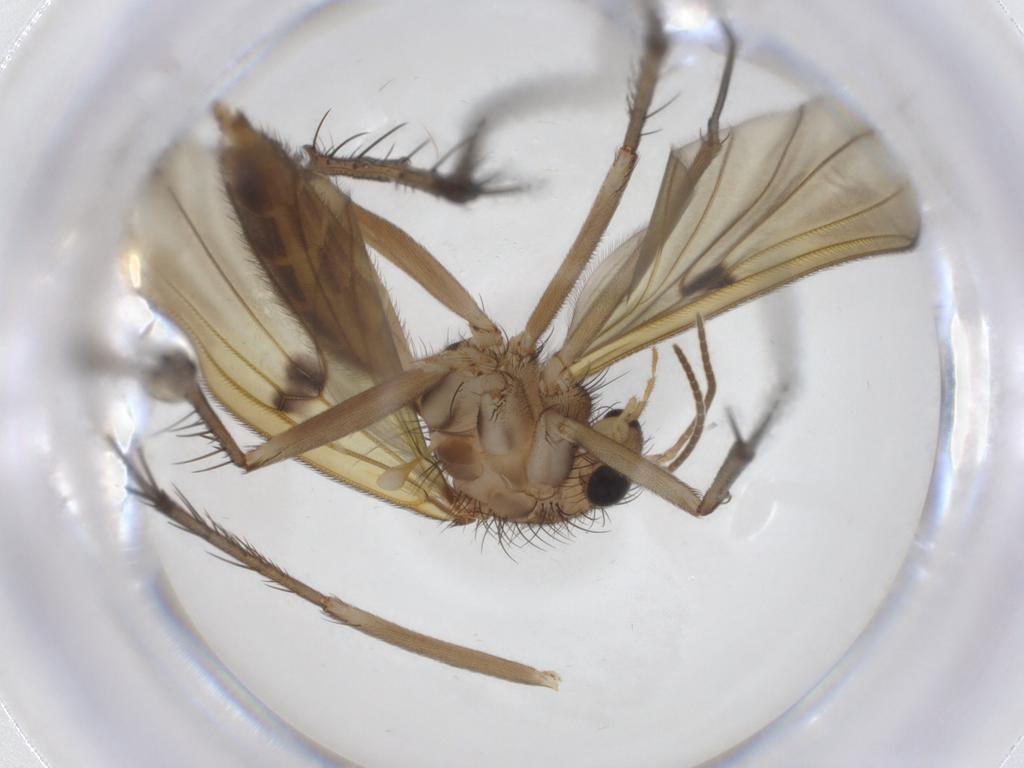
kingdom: Animalia
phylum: Arthropoda
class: Insecta
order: Diptera
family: Mycetophilidae
